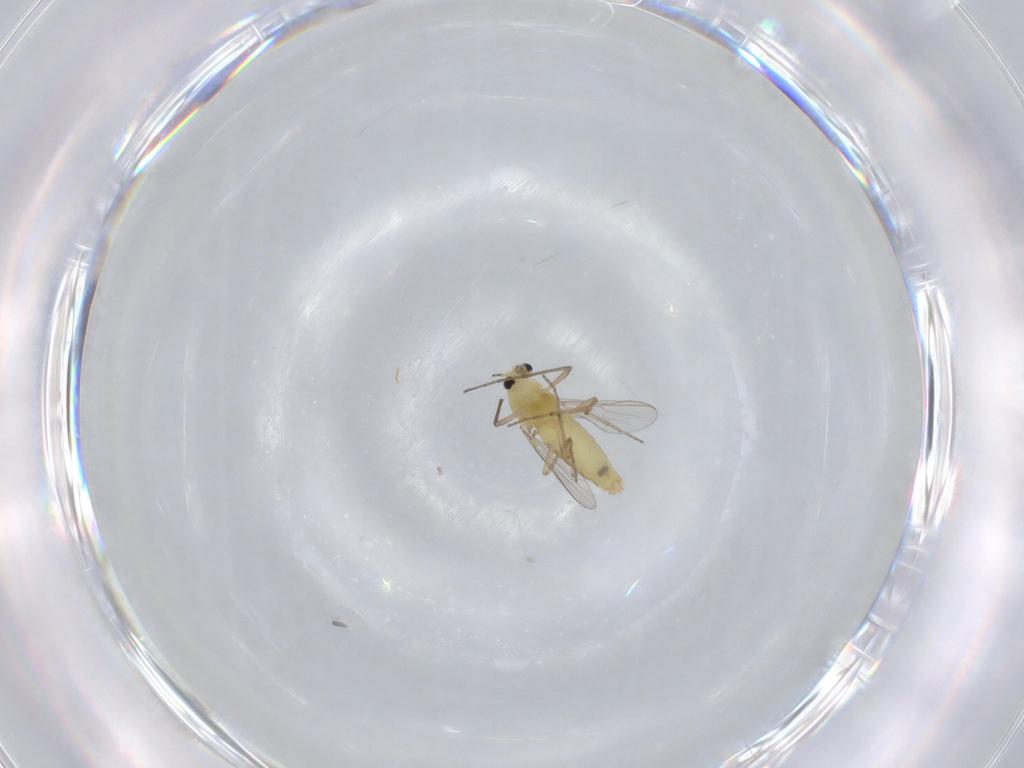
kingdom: Animalia
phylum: Arthropoda
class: Insecta
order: Diptera
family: Chironomidae
